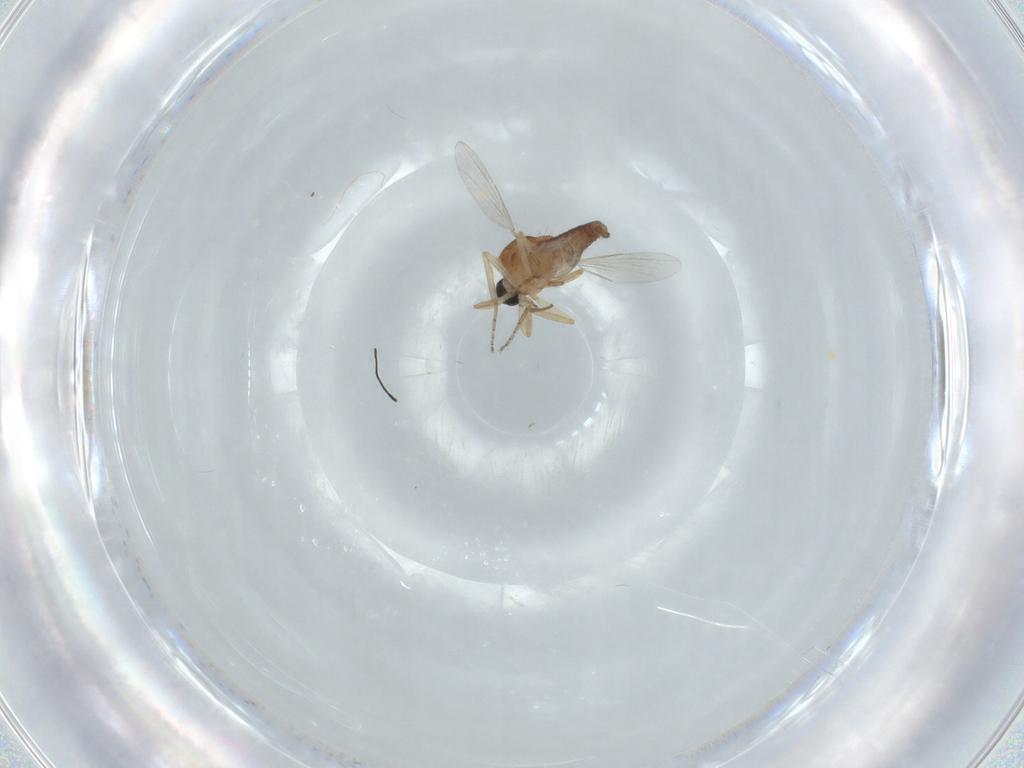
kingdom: Animalia
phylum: Arthropoda
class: Insecta
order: Diptera
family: Ceratopogonidae
